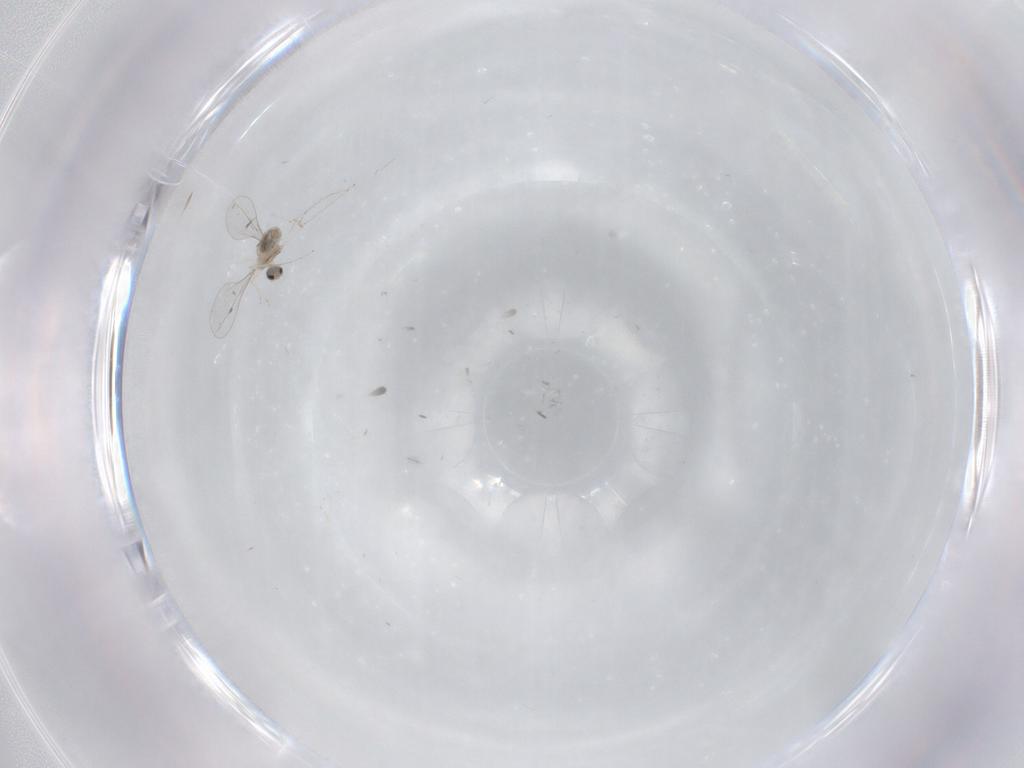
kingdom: Animalia
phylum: Arthropoda
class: Insecta
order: Diptera
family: Cecidomyiidae
